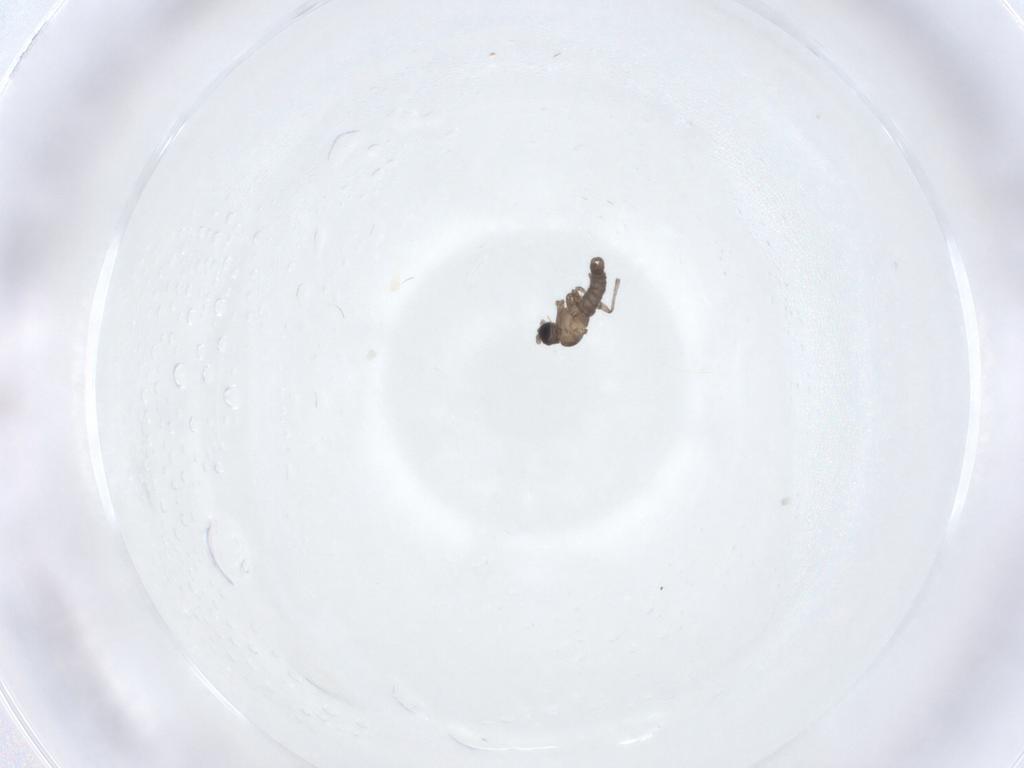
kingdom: Animalia
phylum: Arthropoda
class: Insecta
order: Diptera
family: Ceratopogonidae
